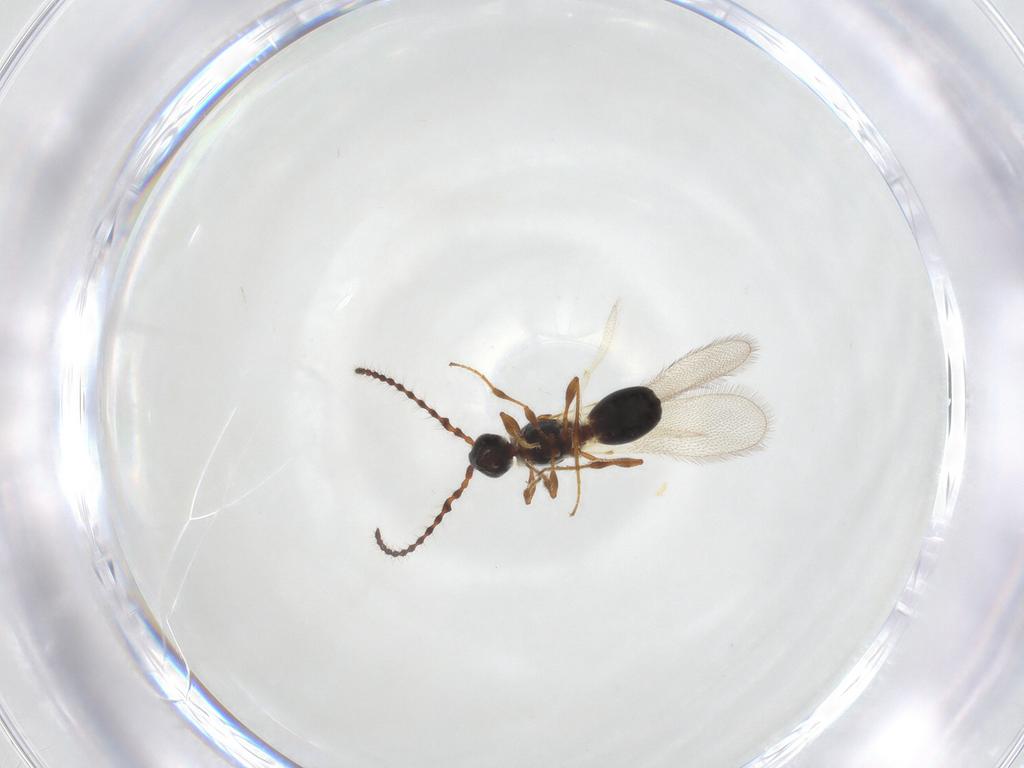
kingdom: Animalia
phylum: Arthropoda
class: Insecta
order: Hymenoptera
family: Diapriidae
